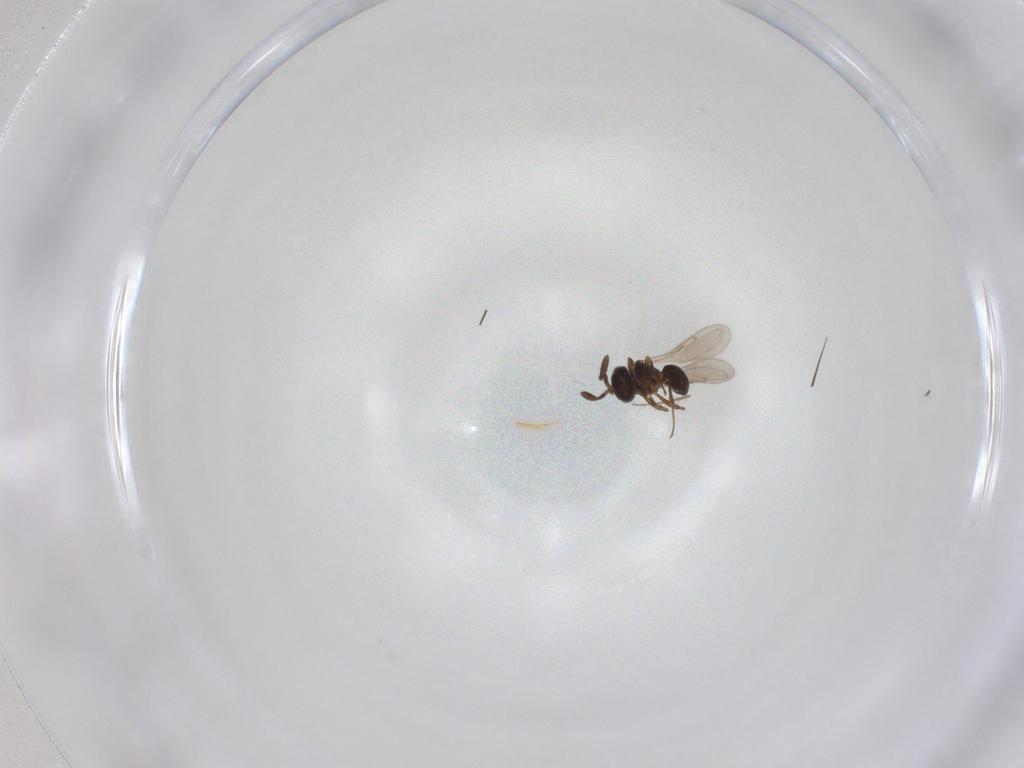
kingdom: Animalia
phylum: Arthropoda
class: Insecta
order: Hymenoptera
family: Scelionidae
